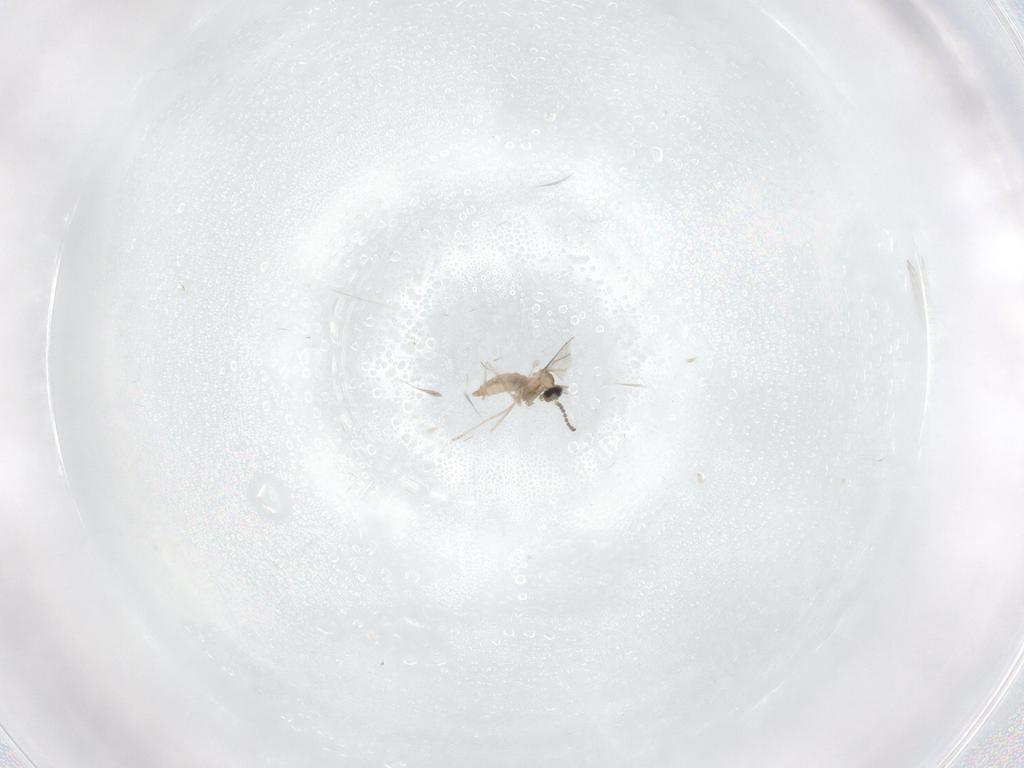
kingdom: Animalia
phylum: Arthropoda
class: Insecta
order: Diptera
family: Cecidomyiidae
